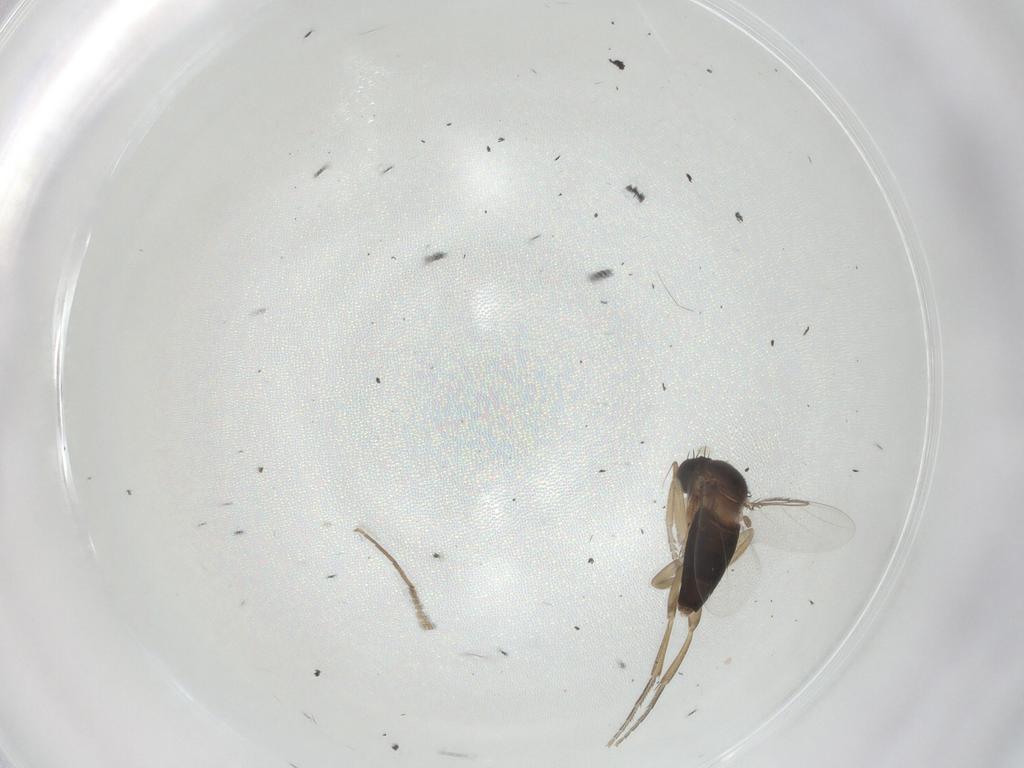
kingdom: Animalia
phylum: Arthropoda
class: Insecta
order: Diptera
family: Phoridae
